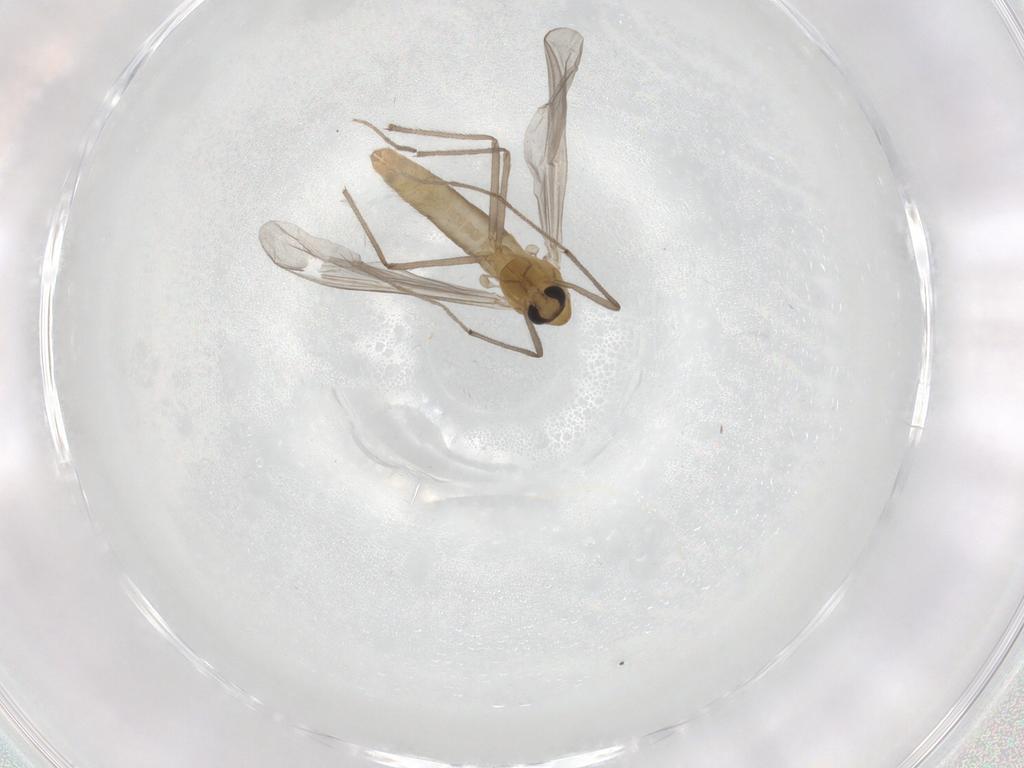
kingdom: Animalia
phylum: Arthropoda
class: Insecta
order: Diptera
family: Chironomidae
